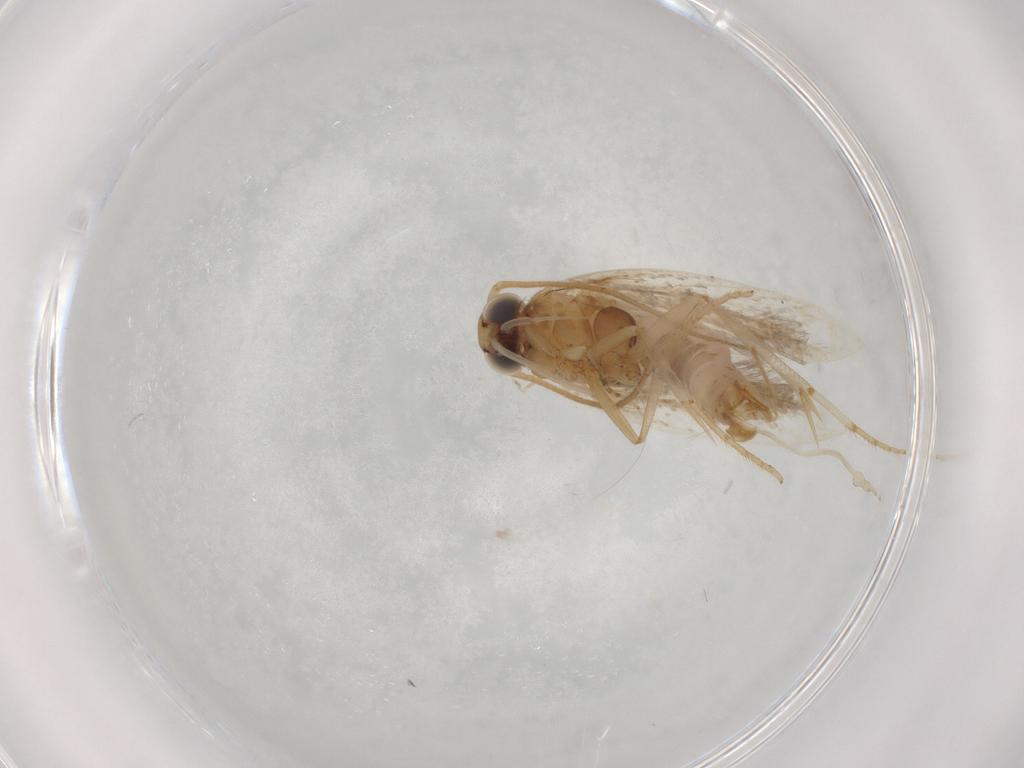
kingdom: Animalia
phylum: Arthropoda
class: Insecta
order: Lepidoptera
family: Plutellidae
